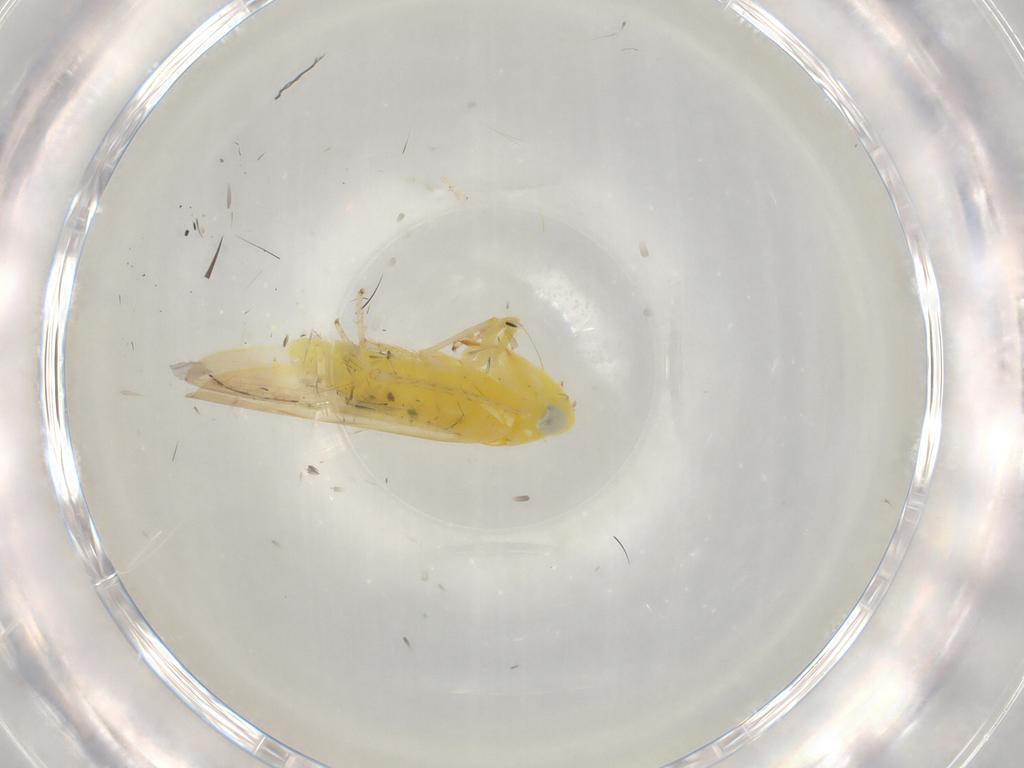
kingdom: Animalia
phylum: Arthropoda
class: Insecta
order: Hemiptera
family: Cicadellidae
